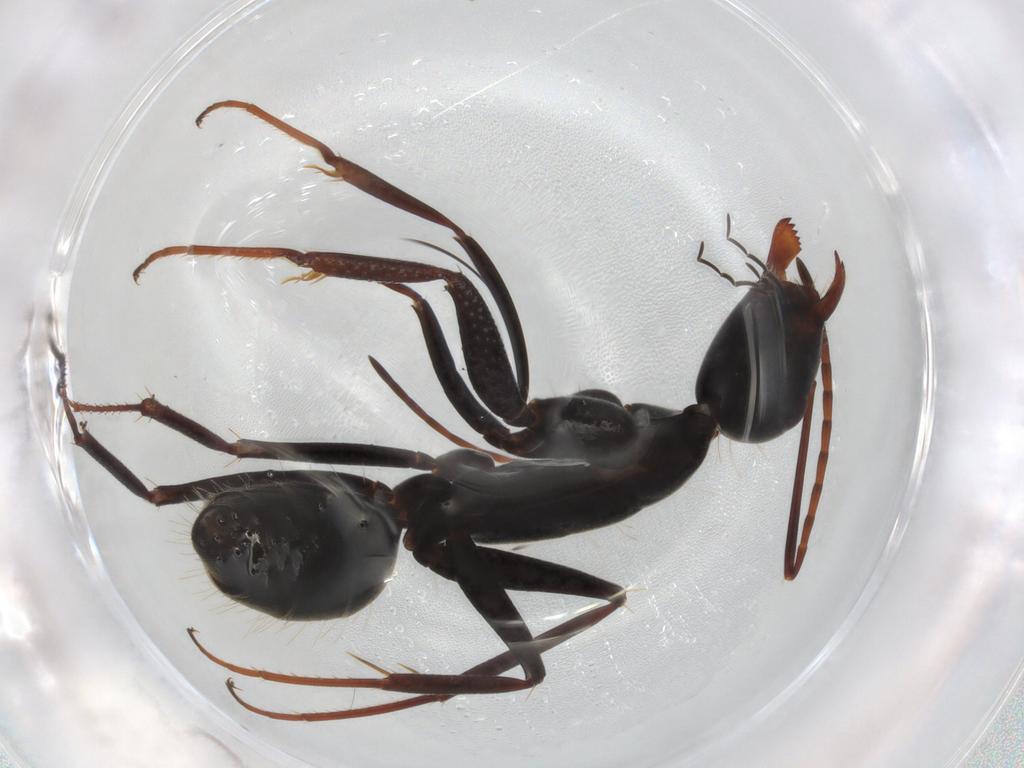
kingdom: Animalia
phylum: Arthropoda
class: Insecta
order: Hymenoptera
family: Formicidae
